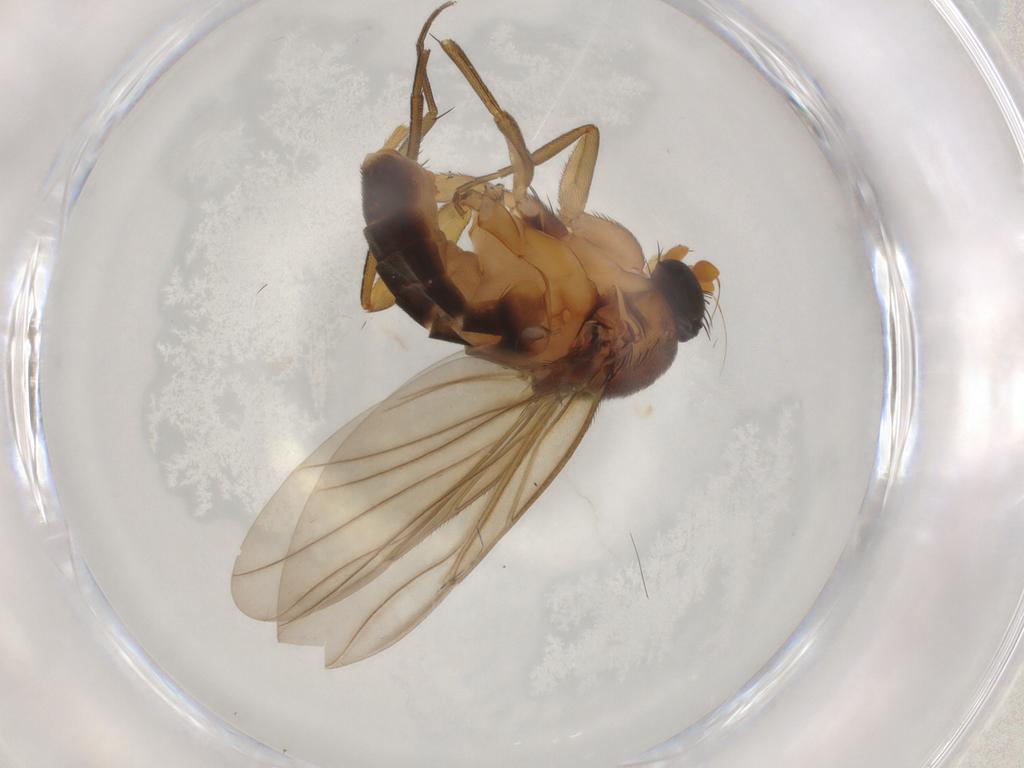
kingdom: Animalia
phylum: Arthropoda
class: Insecta
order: Diptera
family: Phoridae
